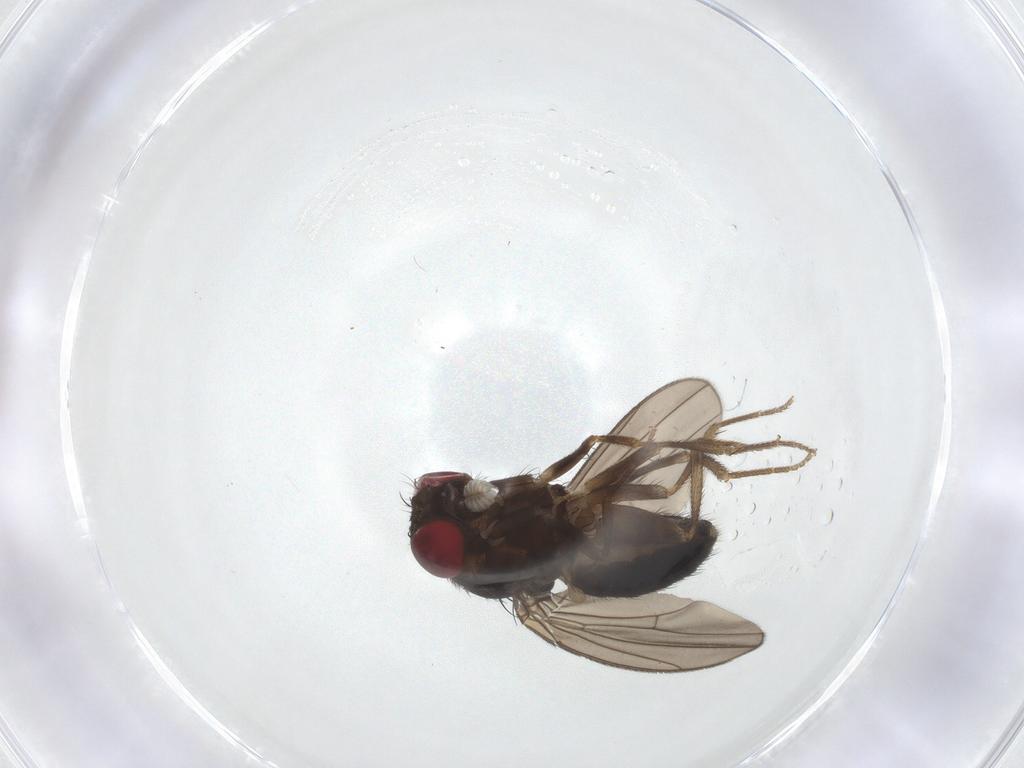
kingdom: Animalia
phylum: Arthropoda
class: Insecta
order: Diptera
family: Drosophilidae
